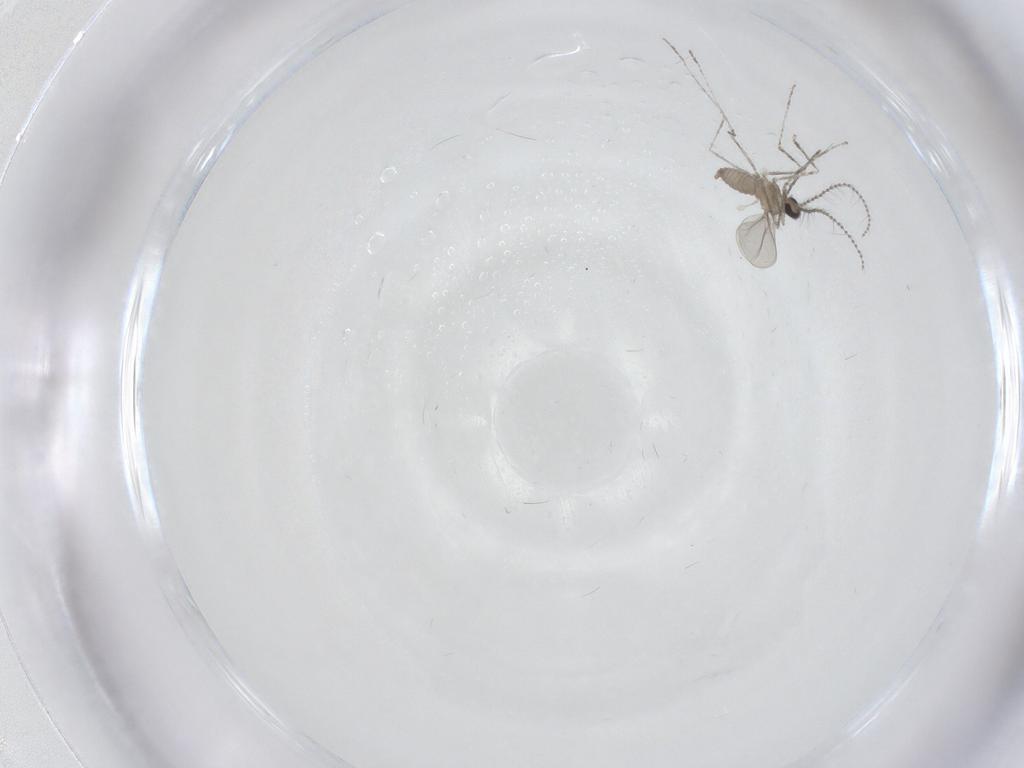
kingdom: Animalia
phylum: Arthropoda
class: Insecta
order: Diptera
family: Cecidomyiidae
